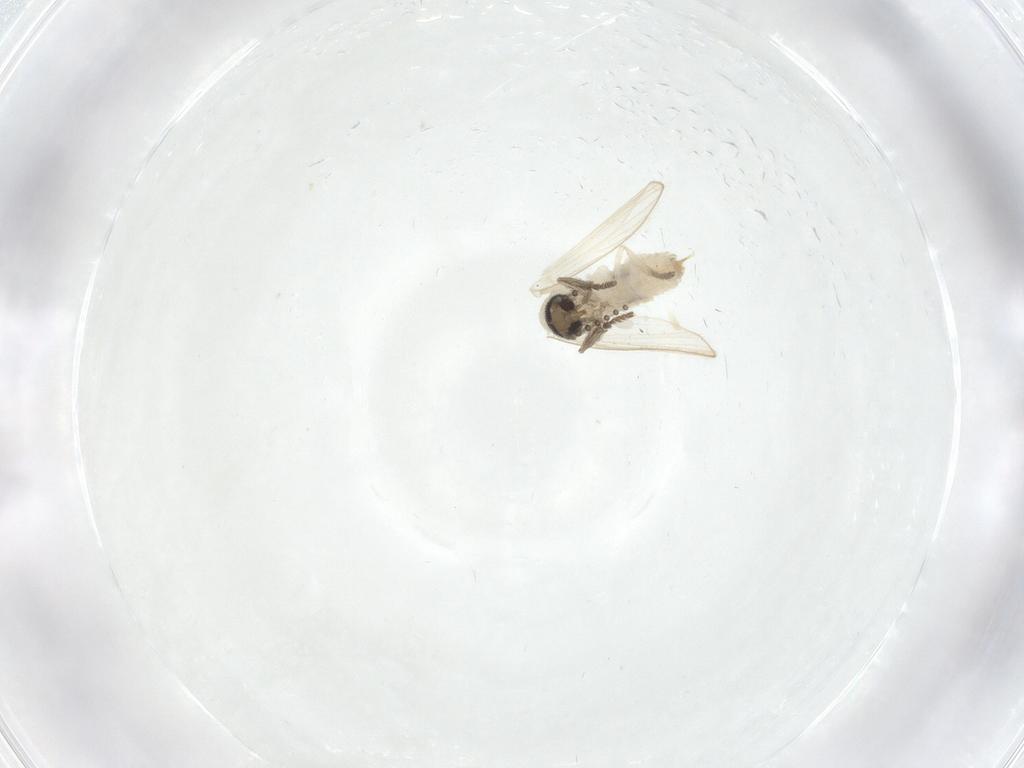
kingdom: Animalia
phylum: Arthropoda
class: Insecta
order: Diptera
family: Psychodidae
